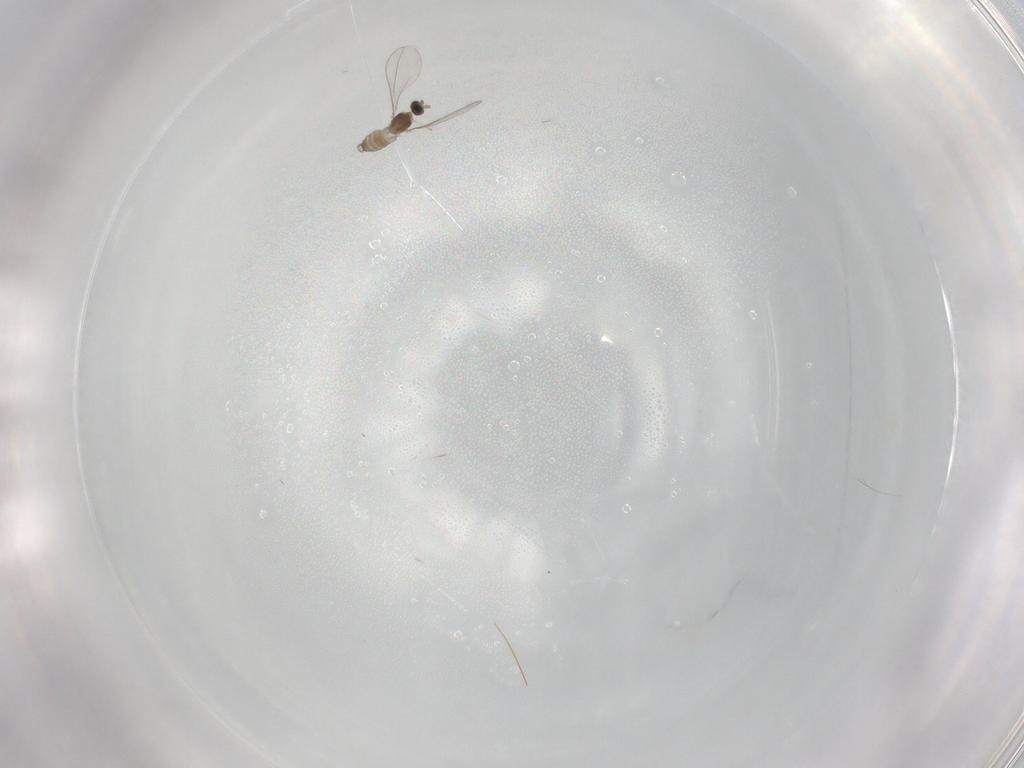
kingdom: Animalia
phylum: Arthropoda
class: Insecta
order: Diptera
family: Cecidomyiidae
